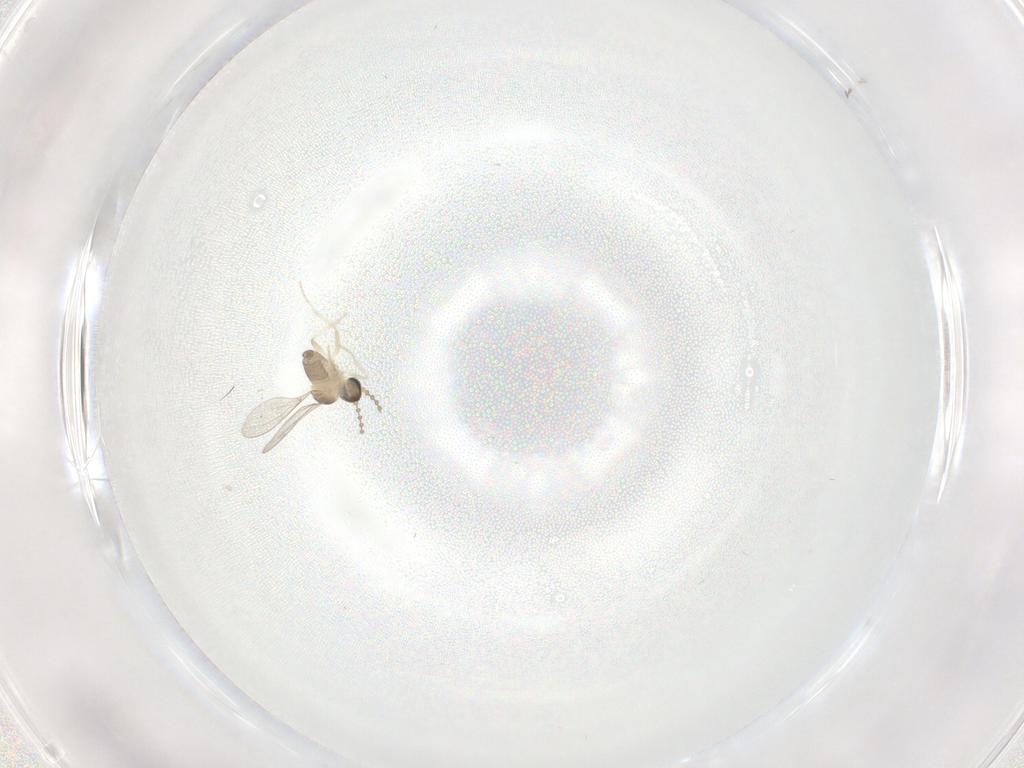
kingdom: Animalia
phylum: Arthropoda
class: Insecta
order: Diptera
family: Cecidomyiidae
